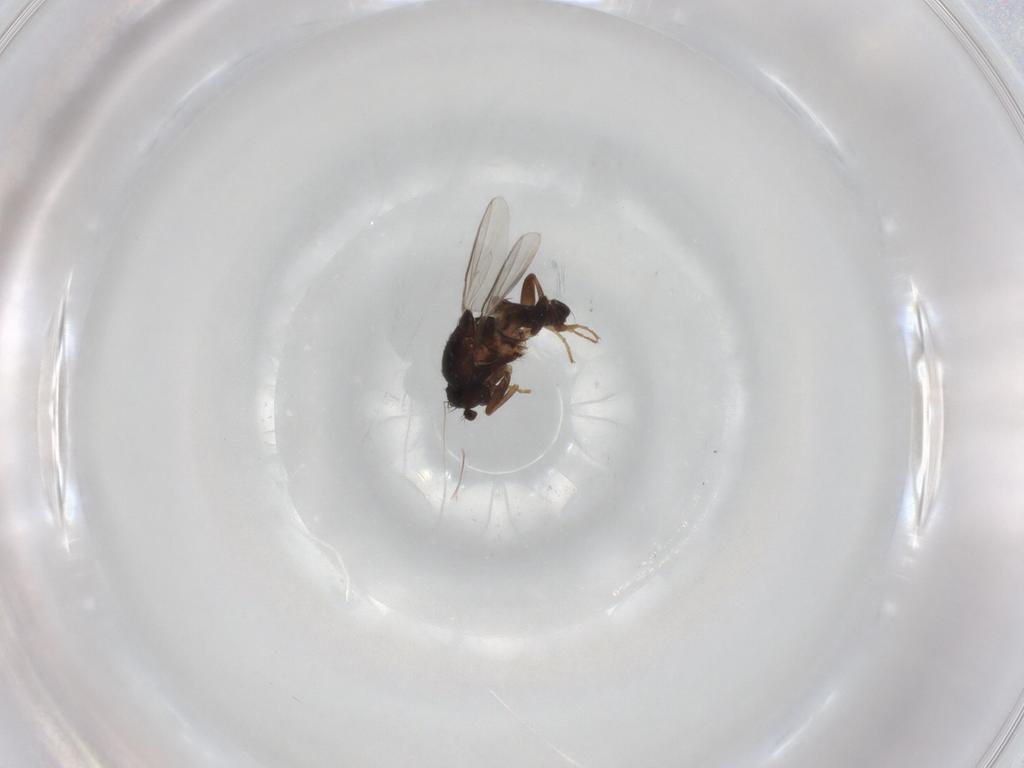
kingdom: Animalia
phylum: Arthropoda
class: Insecta
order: Diptera
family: Sphaeroceridae
